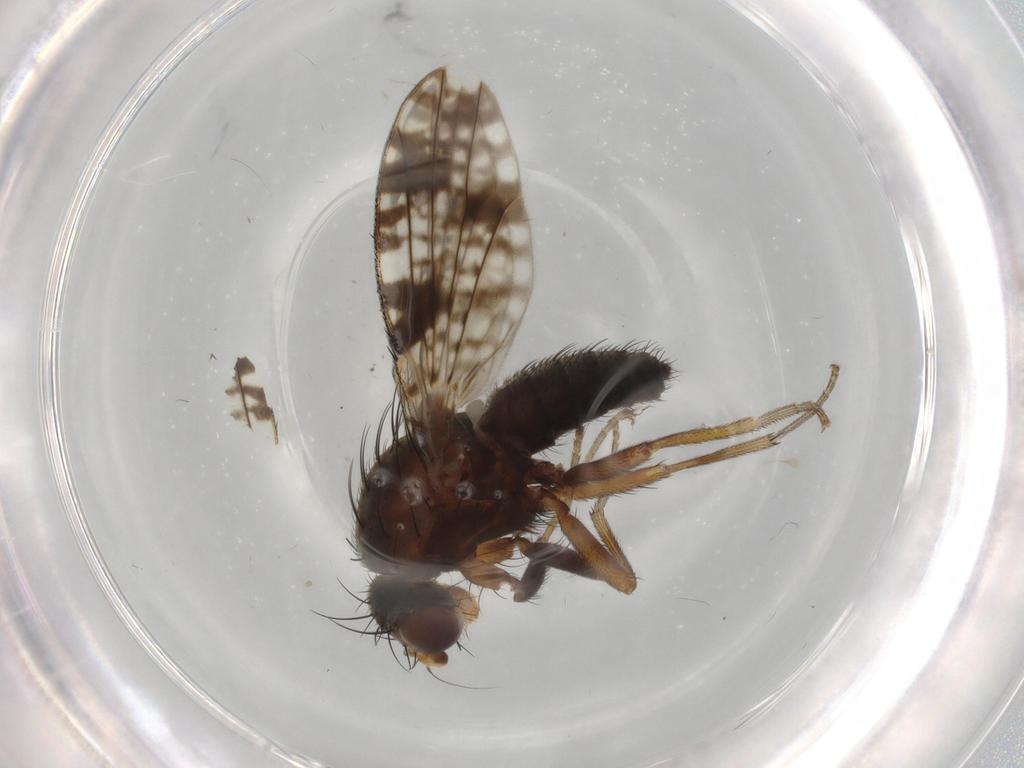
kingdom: Animalia
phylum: Arthropoda
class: Insecta
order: Diptera
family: Tephritidae
